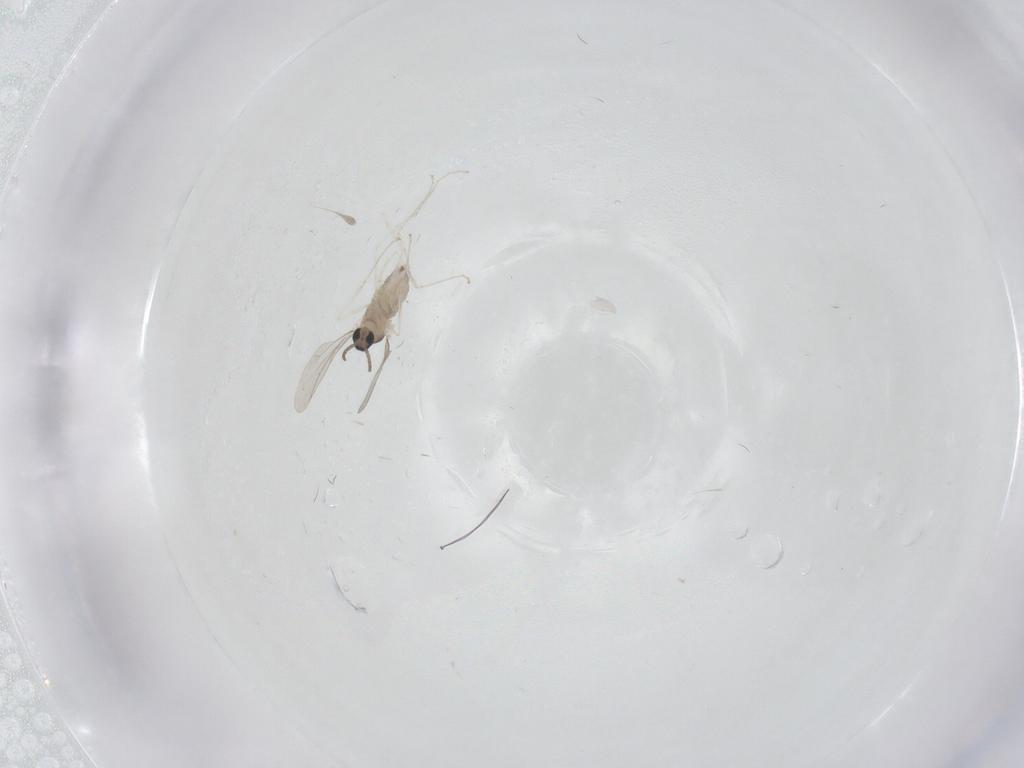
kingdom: Animalia
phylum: Arthropoda
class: Insecta
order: Diptera
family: Cecidomyiidae
